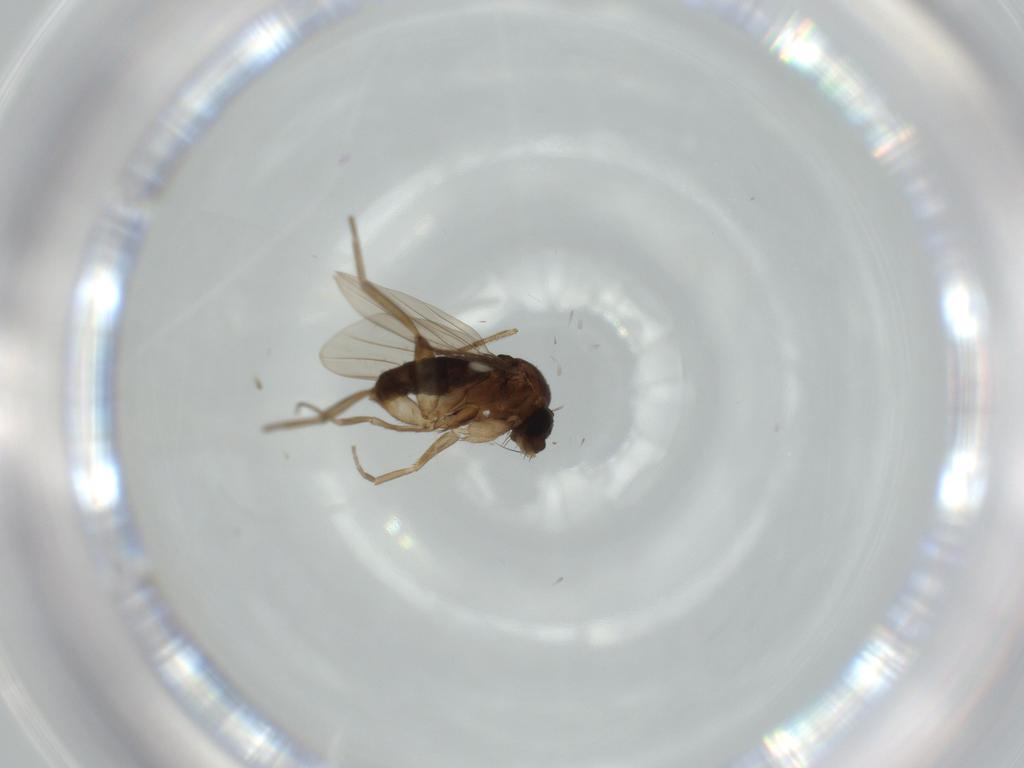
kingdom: Animalia
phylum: Arthropoda
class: Insecta
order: Diptera
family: Phoridae
